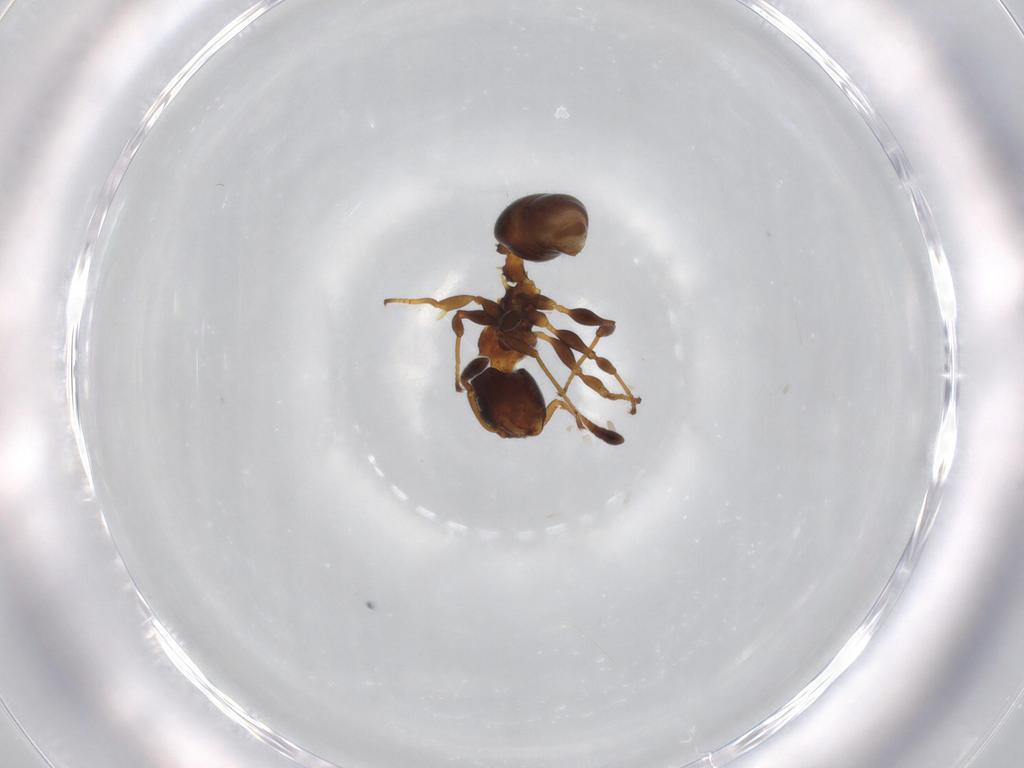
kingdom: Animalia
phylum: Arthropoda
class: Insecta
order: Hymenoptera
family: Formicidae
